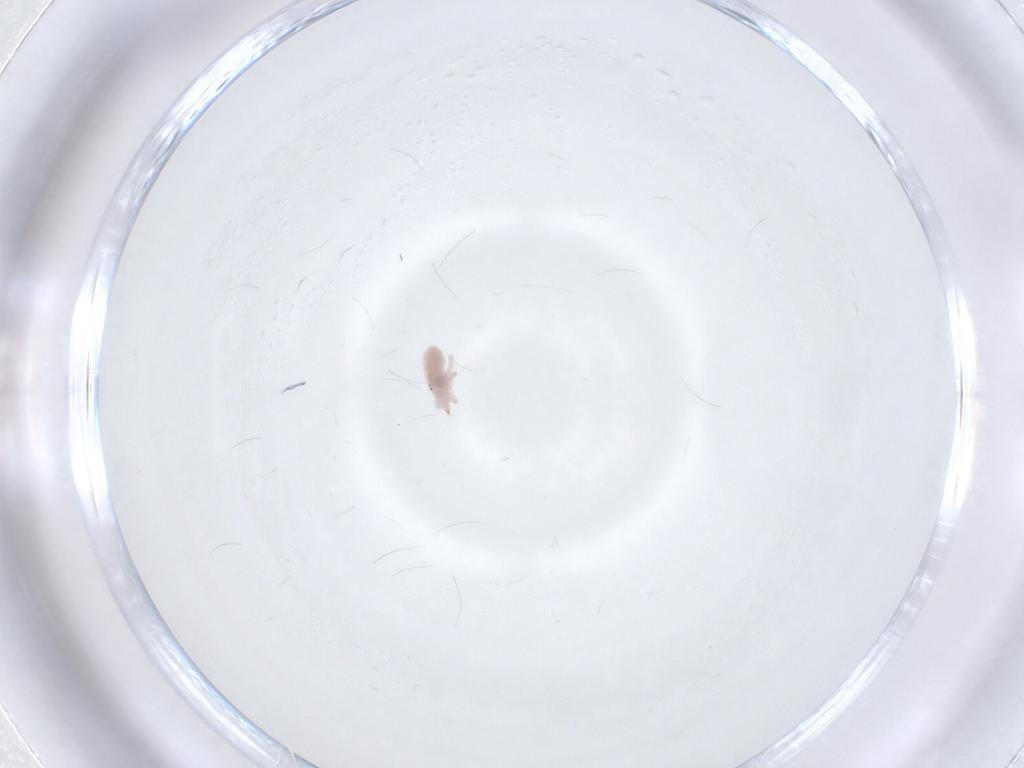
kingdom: Animalia
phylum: Arthropoda
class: Arachnida
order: Trombidiformes
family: Bdellidae
